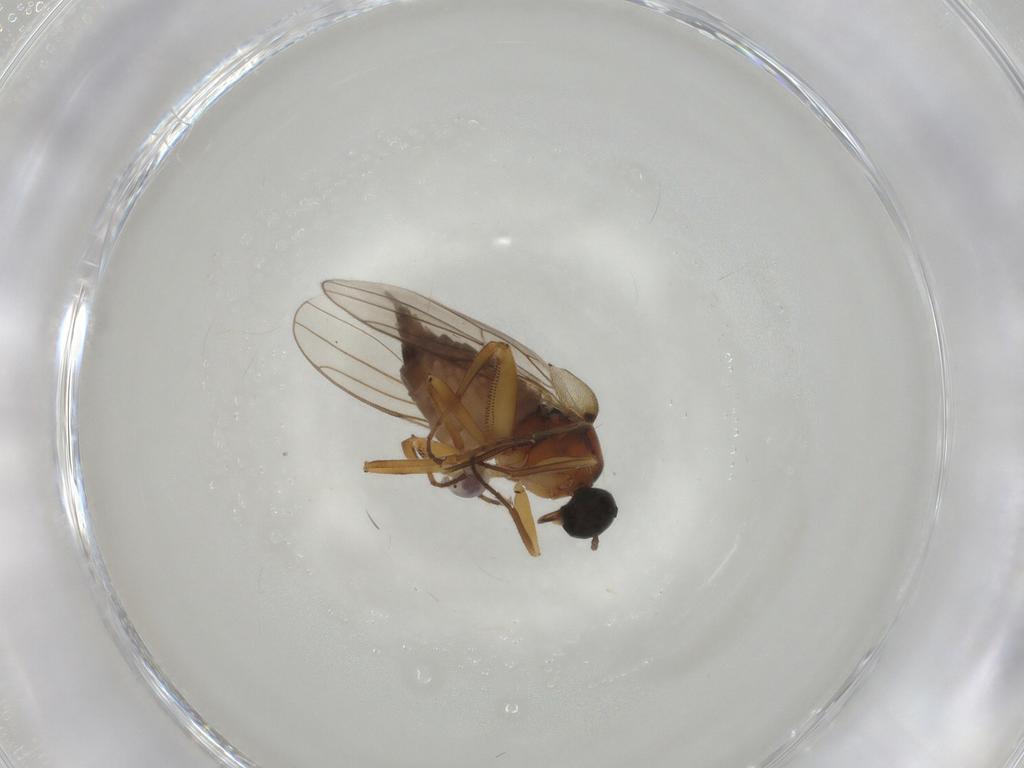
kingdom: Animalia
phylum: Arthropoda
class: Insecta
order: Diptera
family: Hybotidae
